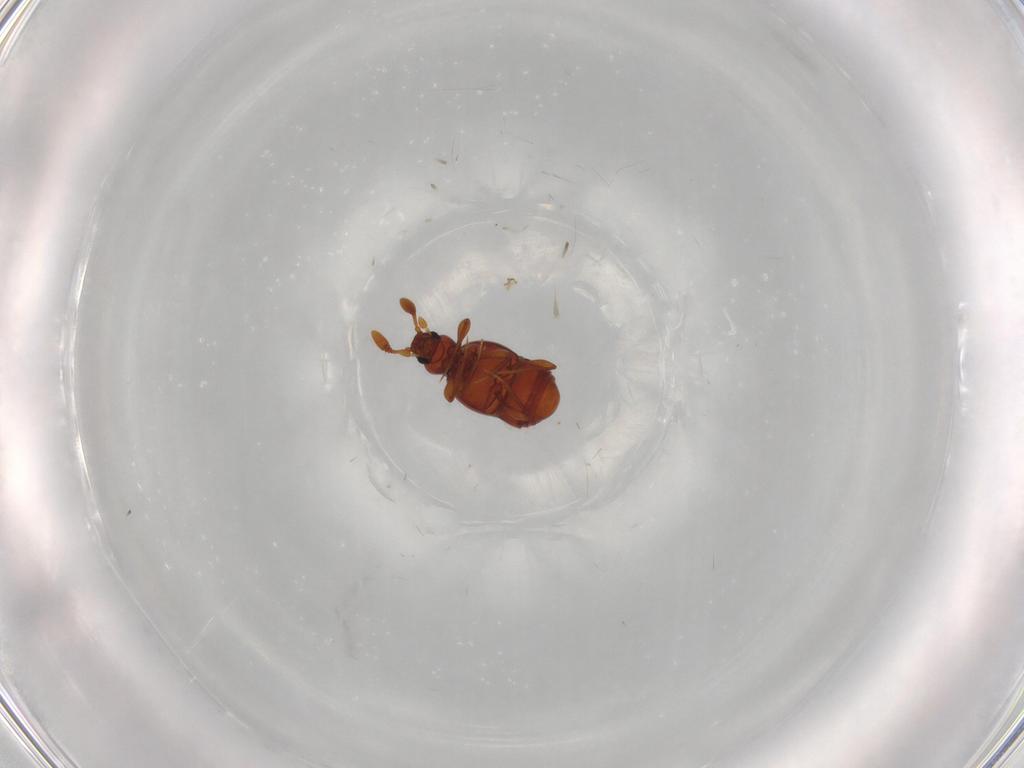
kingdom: Animalia
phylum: Arthropoda
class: Insecta
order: Coleoptera
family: Staphylinidae
